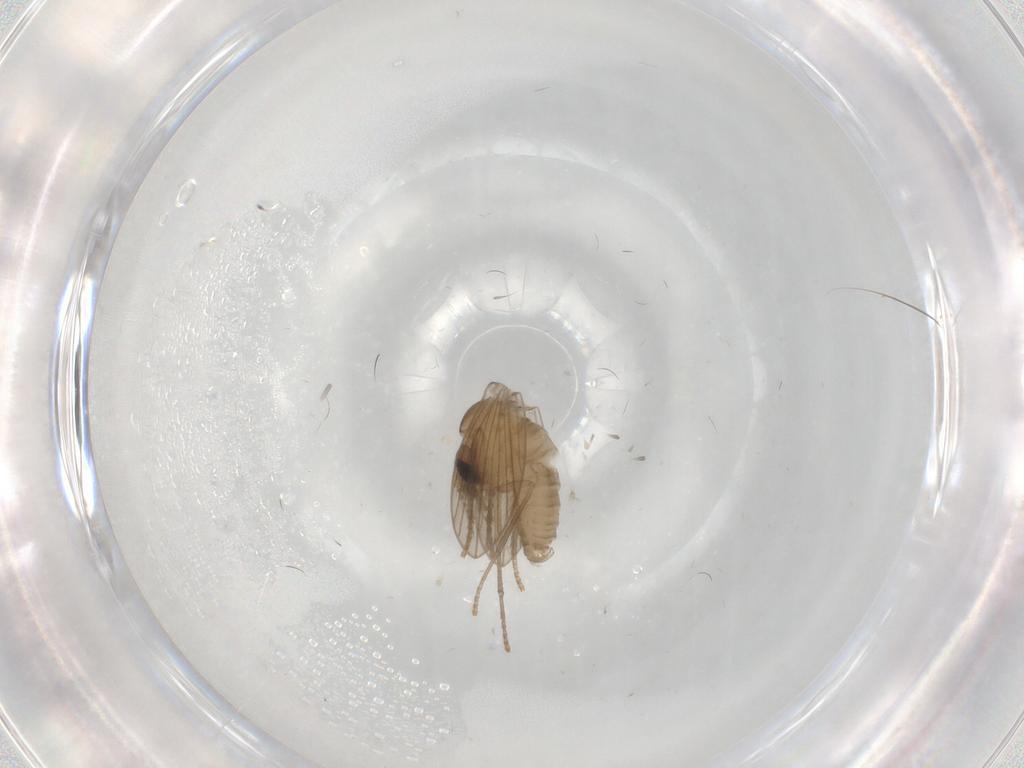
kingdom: Animalia
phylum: Arthropoda
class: Insecta
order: Diptera
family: Psychodidae
